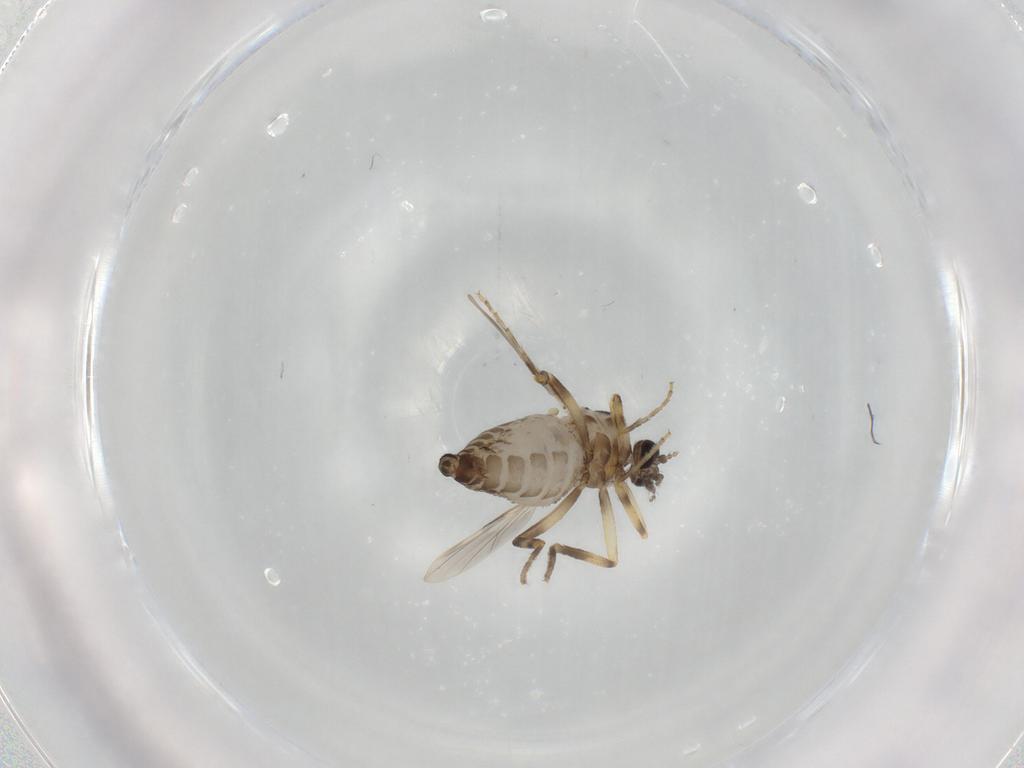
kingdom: Animalia
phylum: Arthropoda
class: Insecta
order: Diptera
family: Ceratopogonidae
